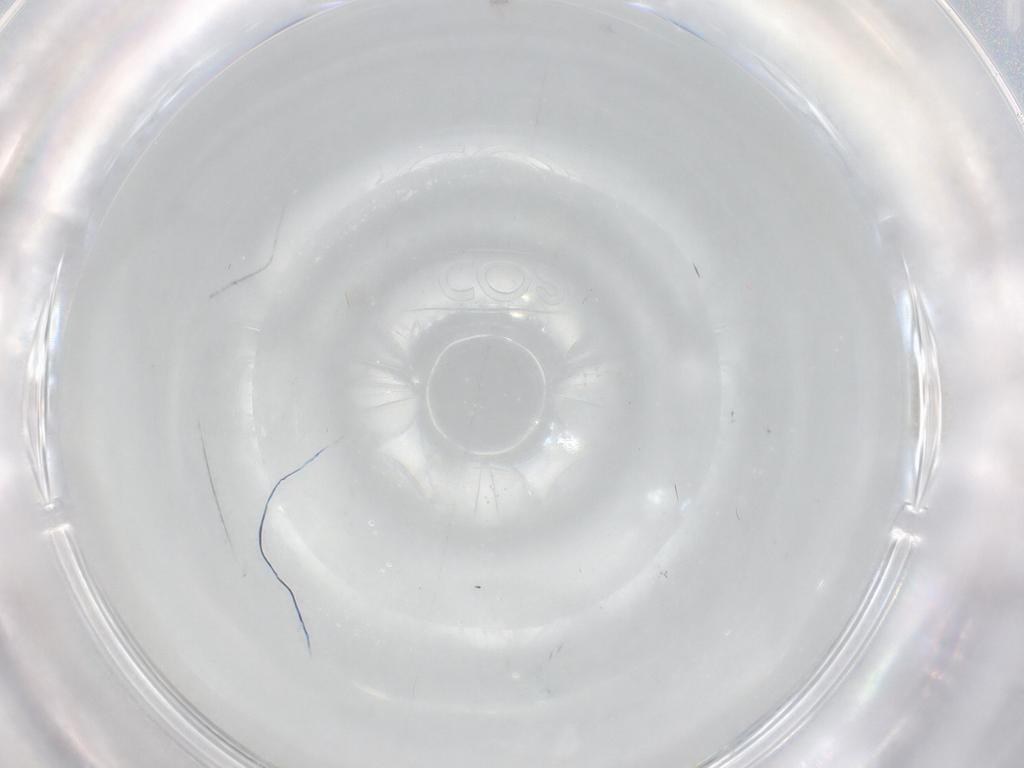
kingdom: Animalia
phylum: Arthropoda
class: Insecta
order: Diptera
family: Cecidomyiidae
